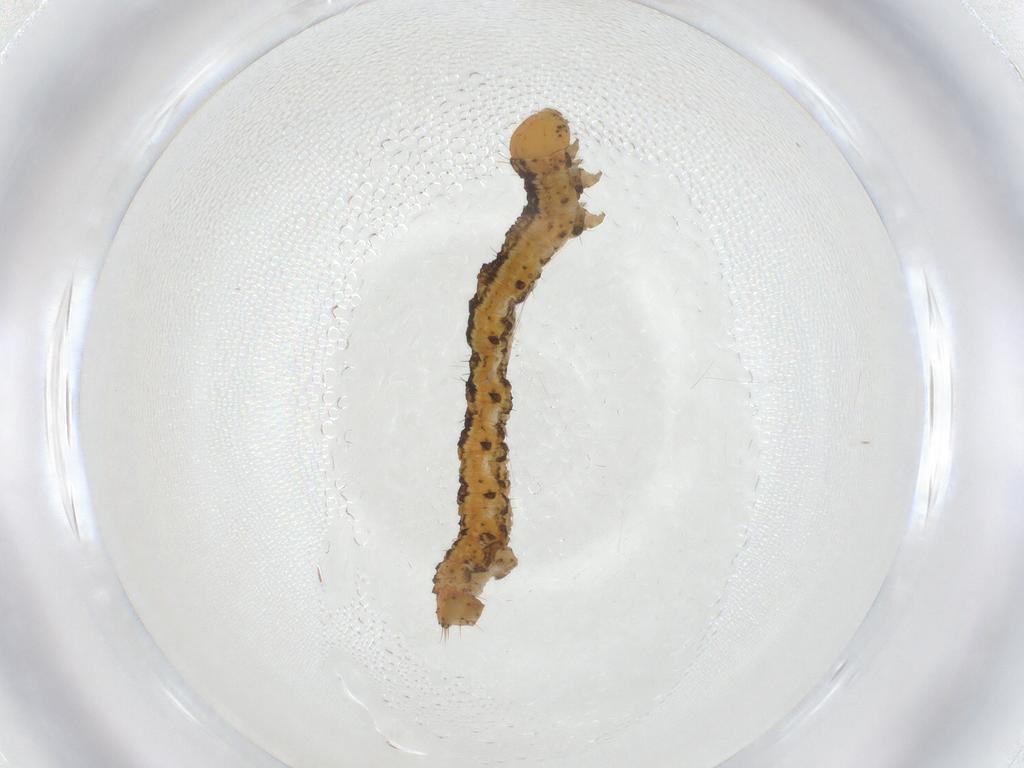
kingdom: Animalia
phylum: Arthropoda
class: Insecta
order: Lepidoptera
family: Geometridae
